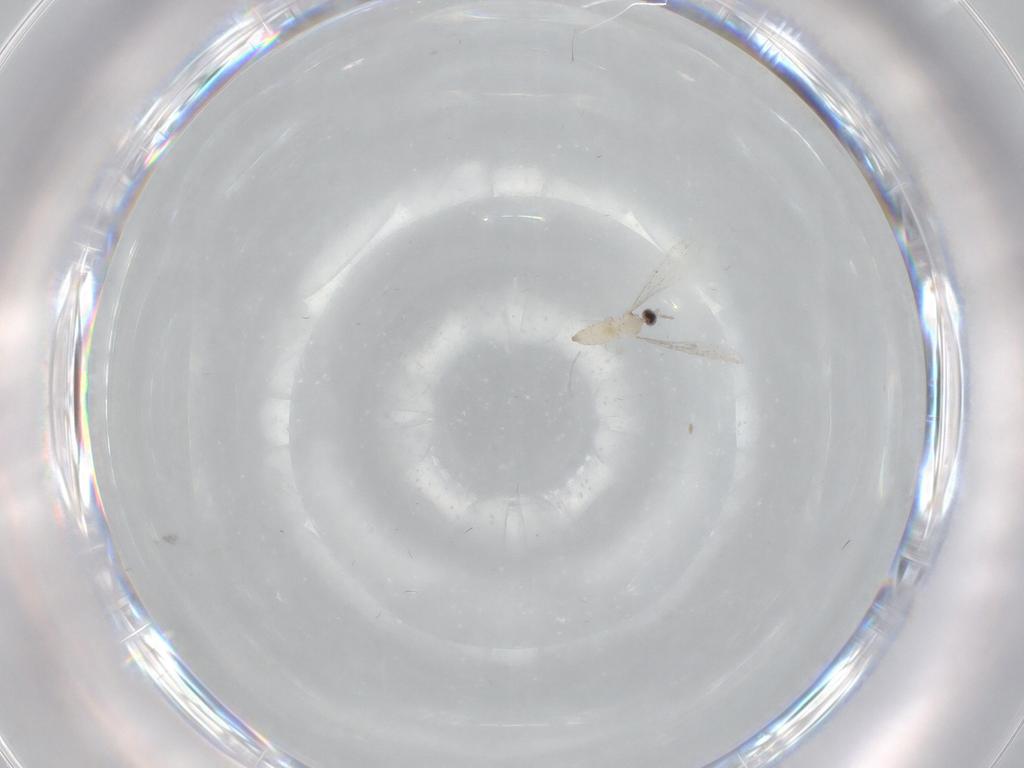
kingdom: Animalia
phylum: Arthropoda
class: Insecta
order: Diptera
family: Cecidomyiidae
